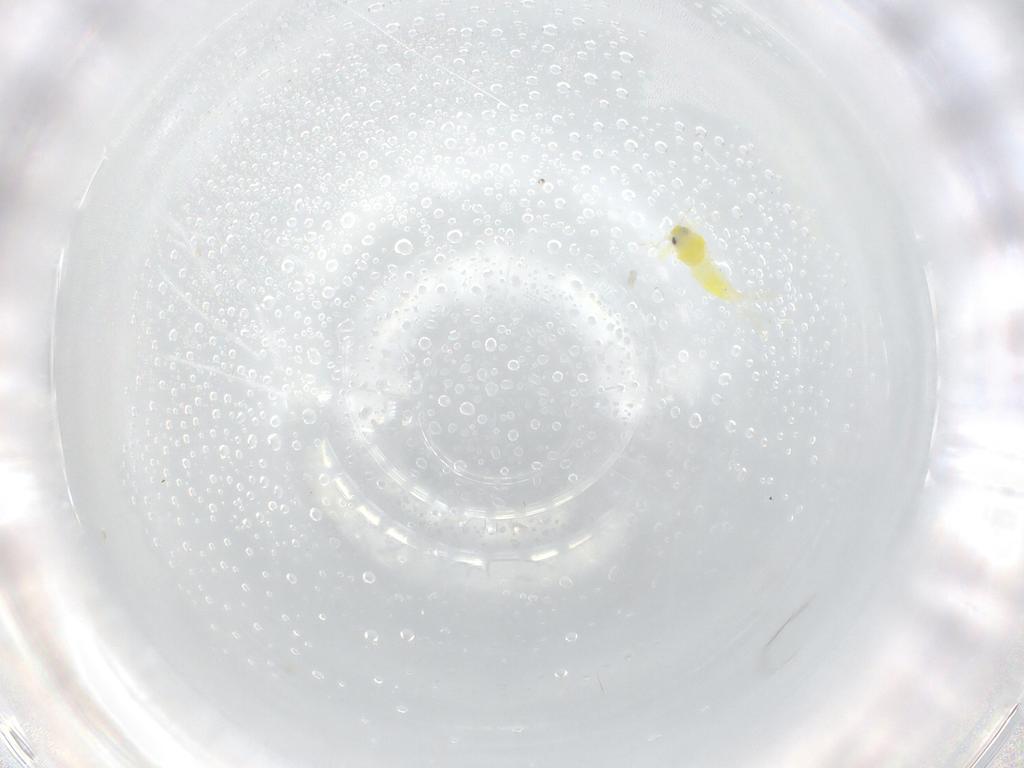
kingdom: Animalia
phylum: Arthropoda
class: Insecta
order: Hemiptera
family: Aleyrodidae
